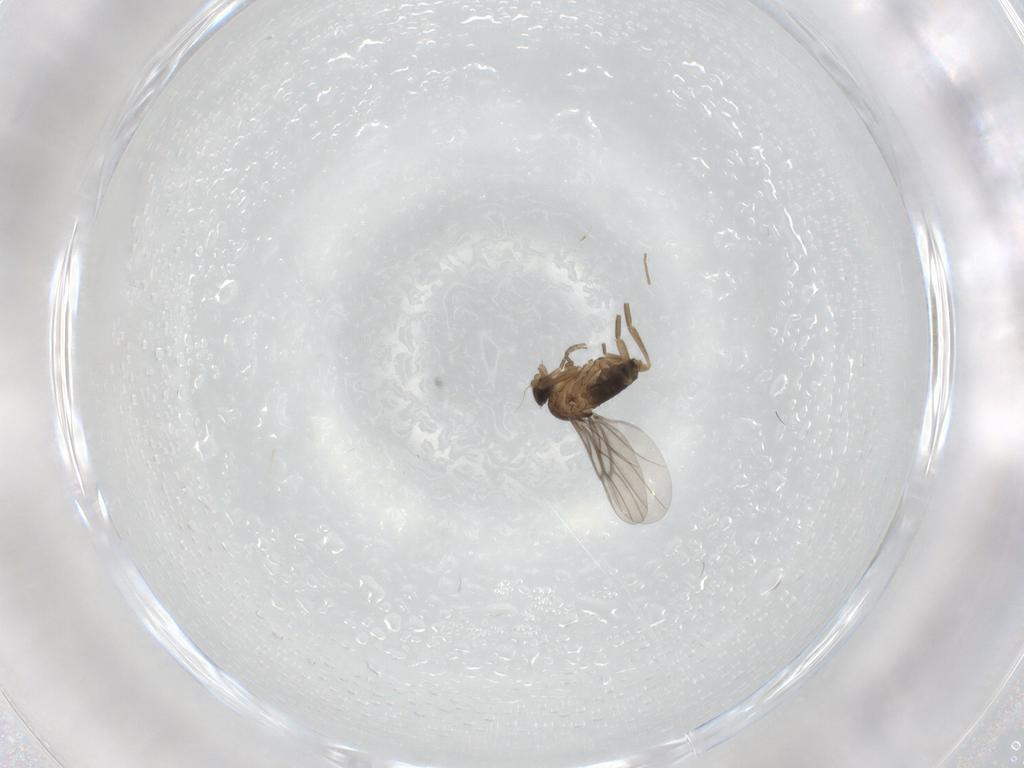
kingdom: Animalia
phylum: Arthropoda
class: Insecta
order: Diptera
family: Phoridae
